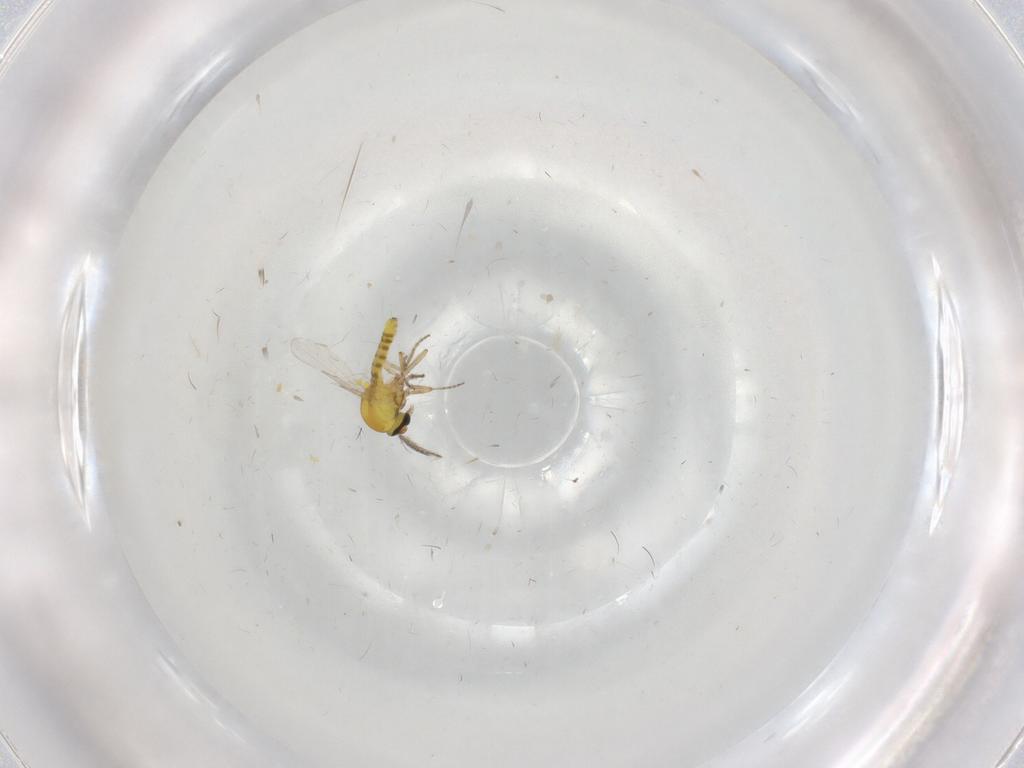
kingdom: Animalia
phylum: Arthropoda
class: Insecta
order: Diptera
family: Ceratopogonidae
